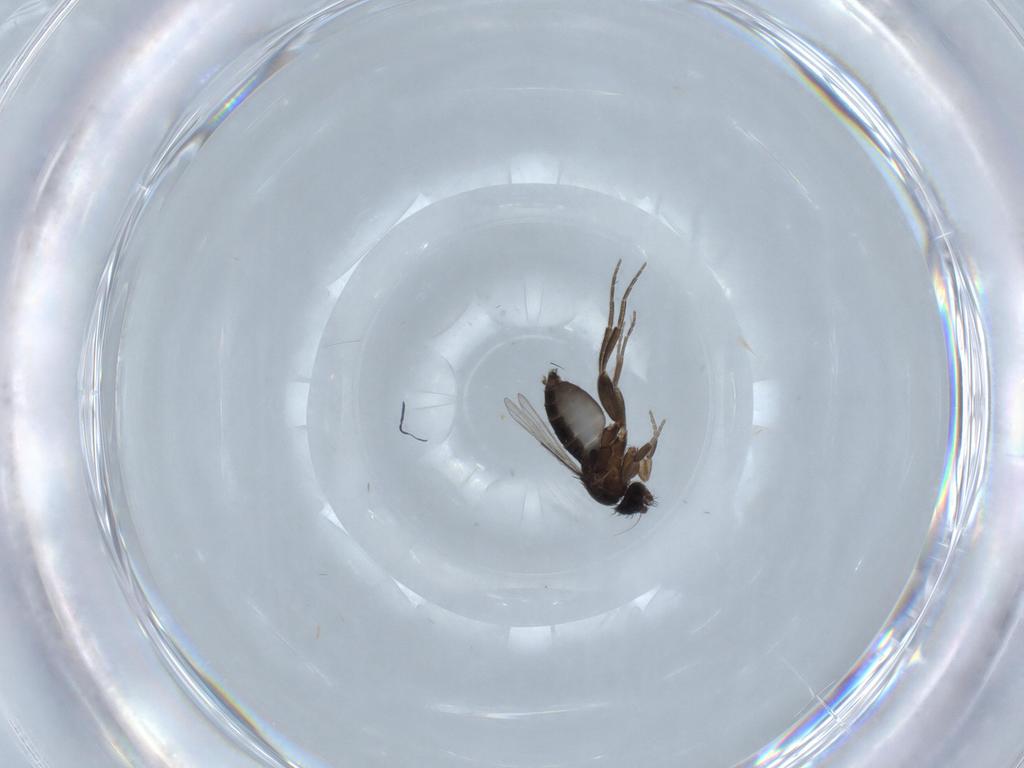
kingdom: Animalia
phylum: Arthropoda
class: Insecta
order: Diptera
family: Phoridae
